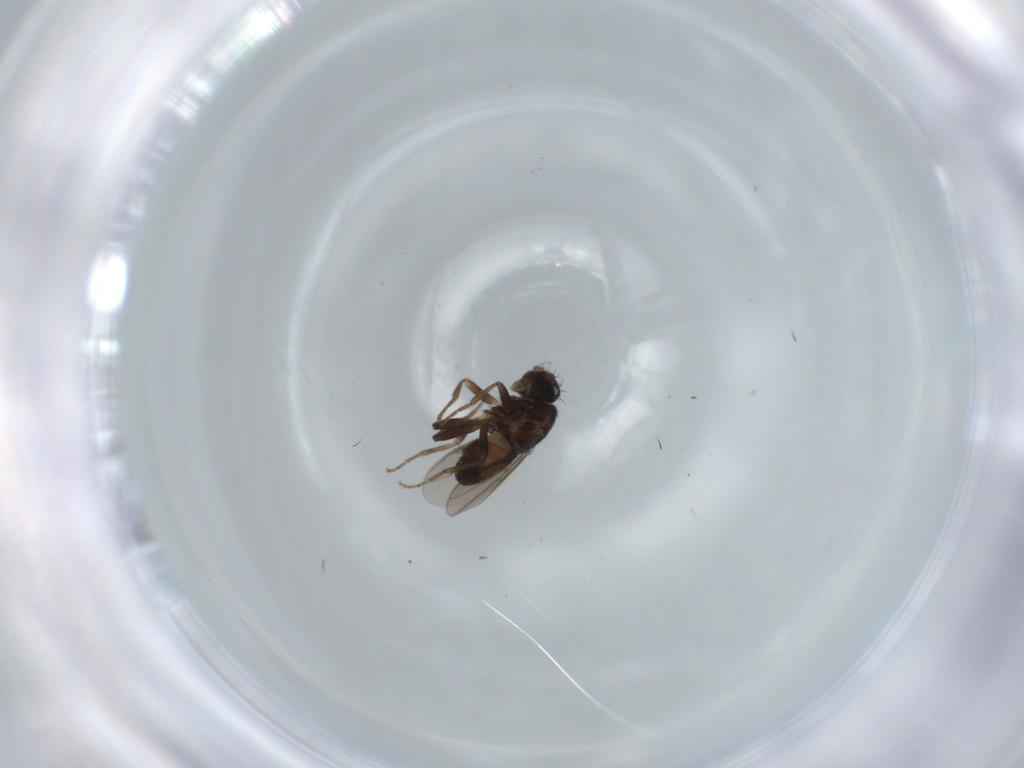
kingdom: Animalia
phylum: Arthropoda
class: Insecta
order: Diptera
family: Sphaeroceridae
